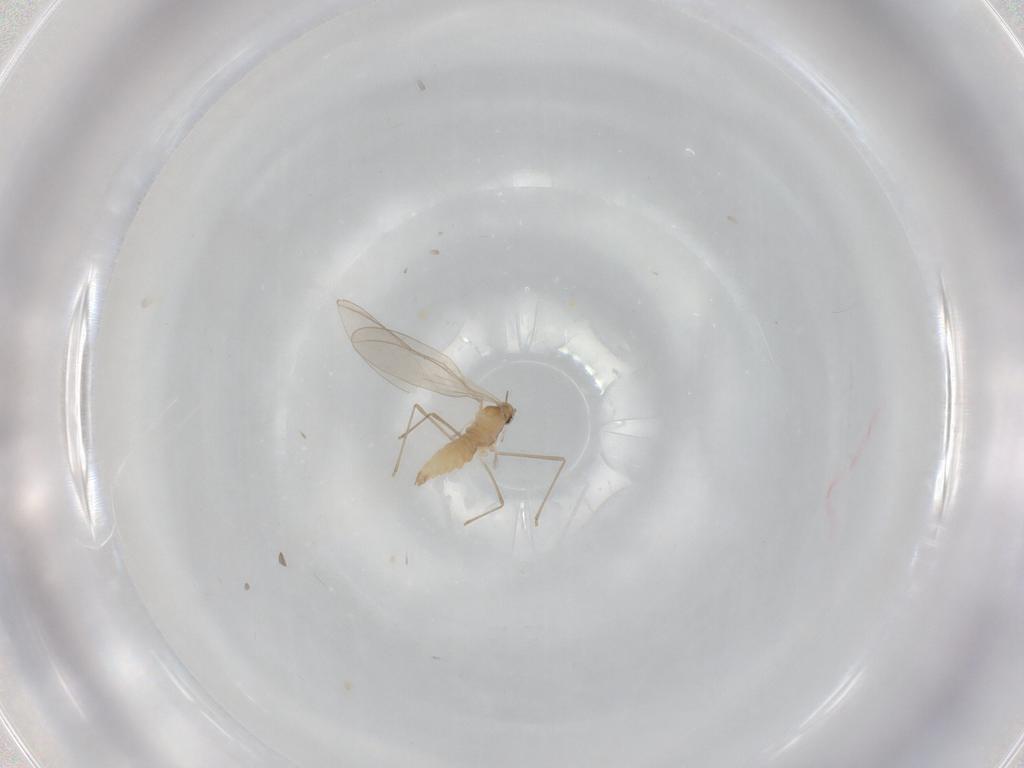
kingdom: Animalia
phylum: Arthropoda
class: Insecta
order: Diptera
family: Cecidomyiidae
